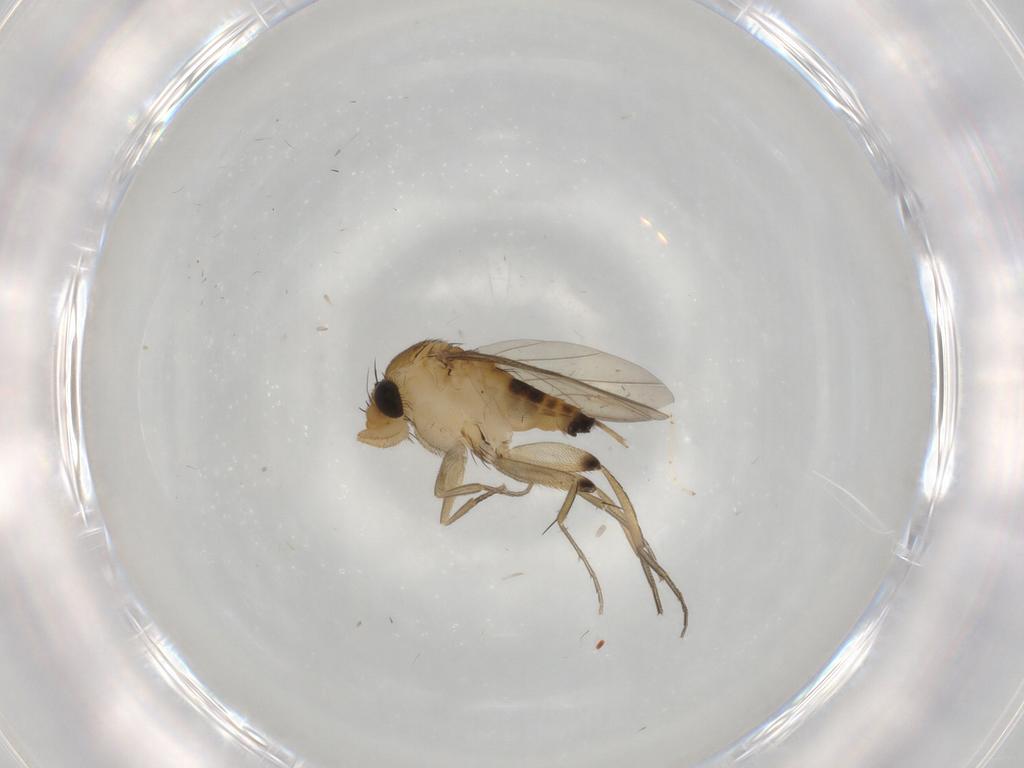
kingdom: Animalia
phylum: Arthropoda
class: Insecta
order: Diptera
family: Phoridae
